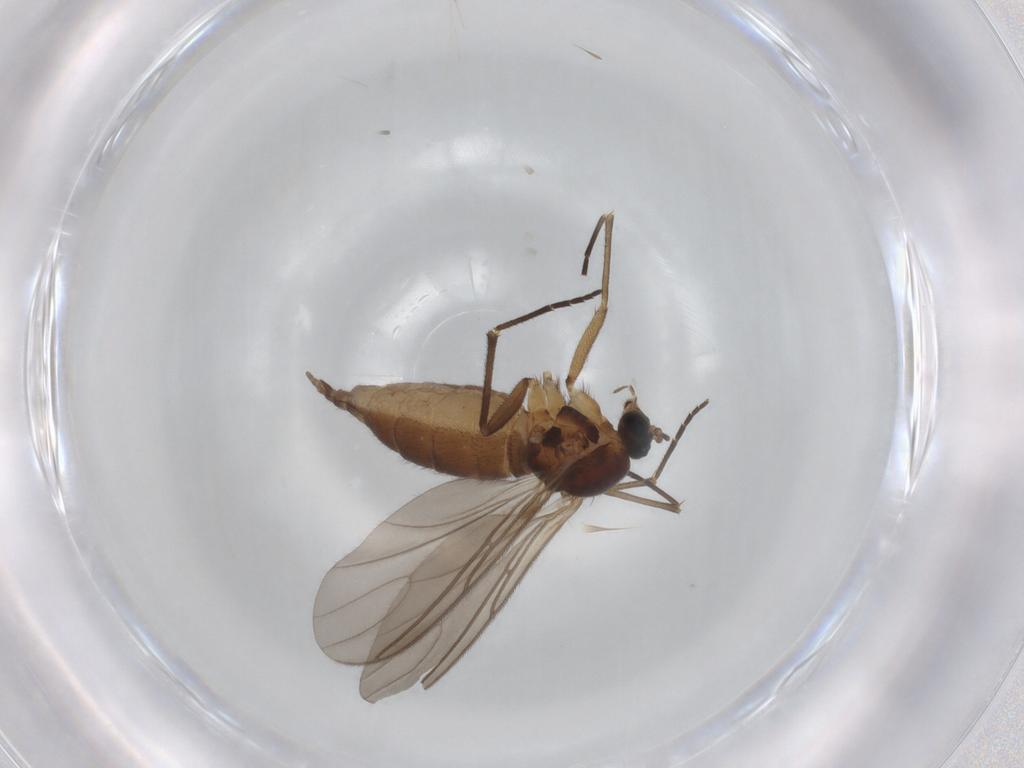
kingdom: Animalia
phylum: Arthropoda
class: Insecta
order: Diptera
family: Sciaridae
